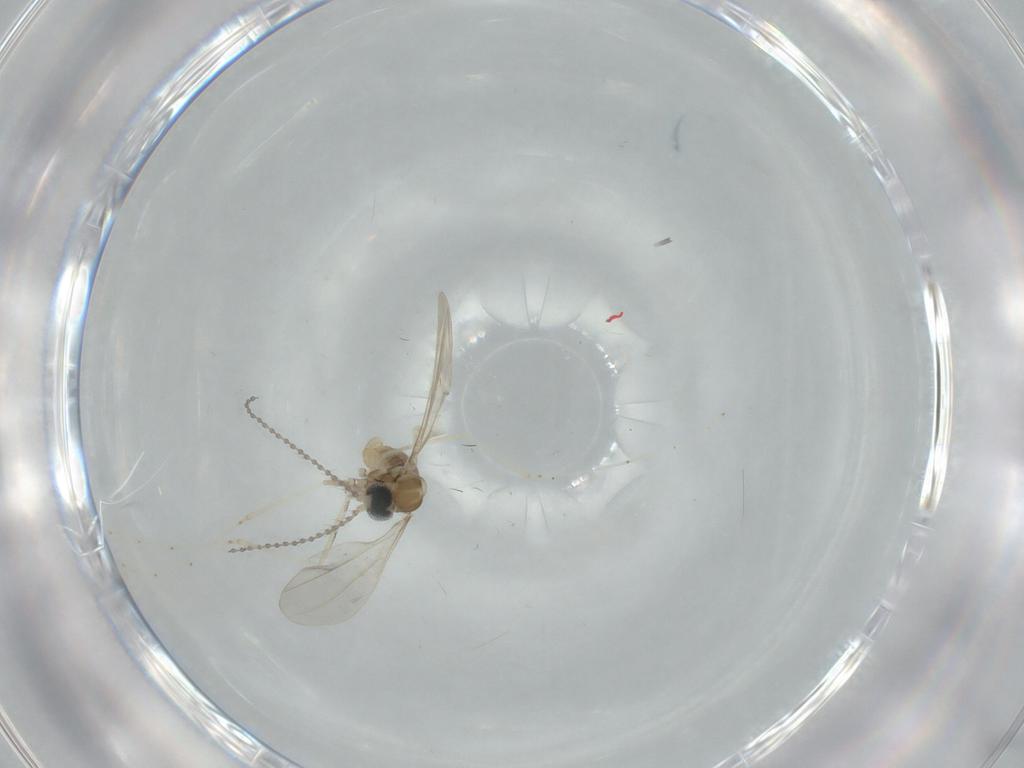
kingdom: Animalia
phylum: Arthropoda
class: Insecta
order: Diptera
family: Cecidomyiidae
